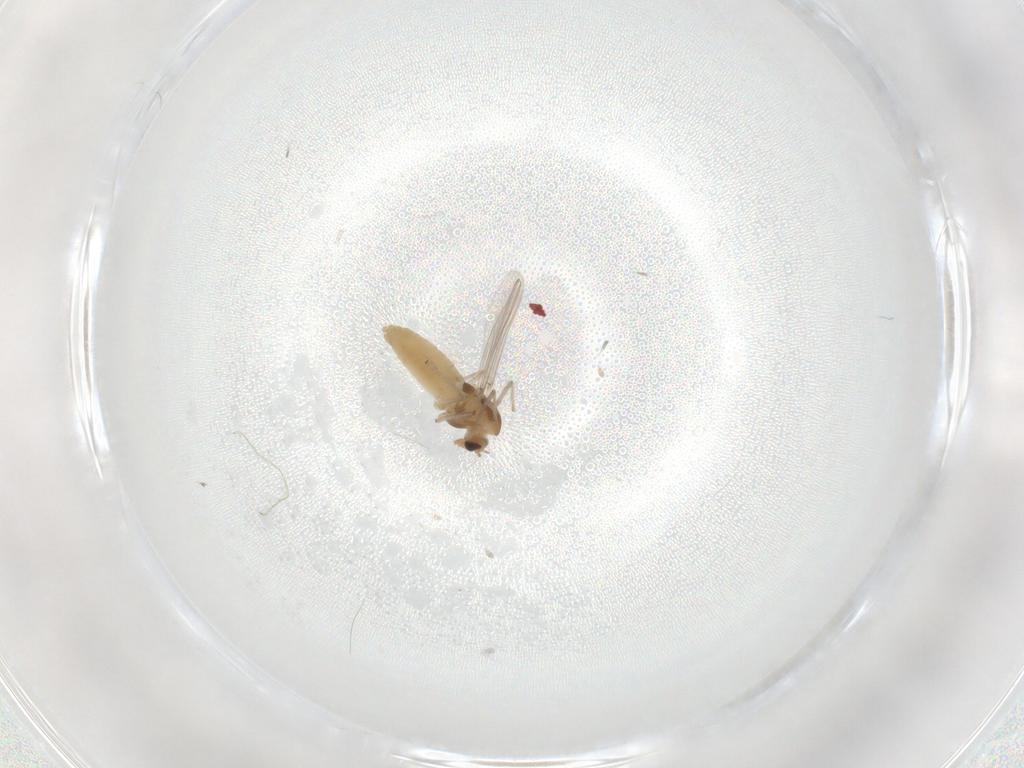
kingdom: Animalia
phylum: Arthropoda
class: Insecta
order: Diptera
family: Chironomidae
